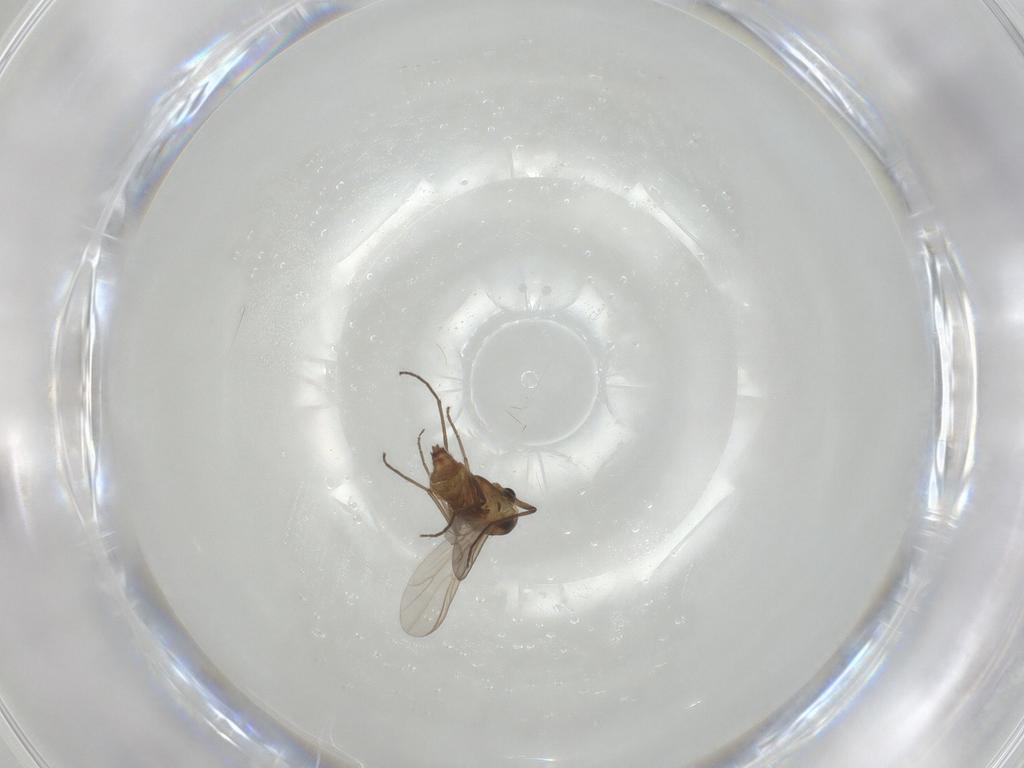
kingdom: Animalia
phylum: Arthropoda
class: Insecta
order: Diptera
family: Chironomidae
